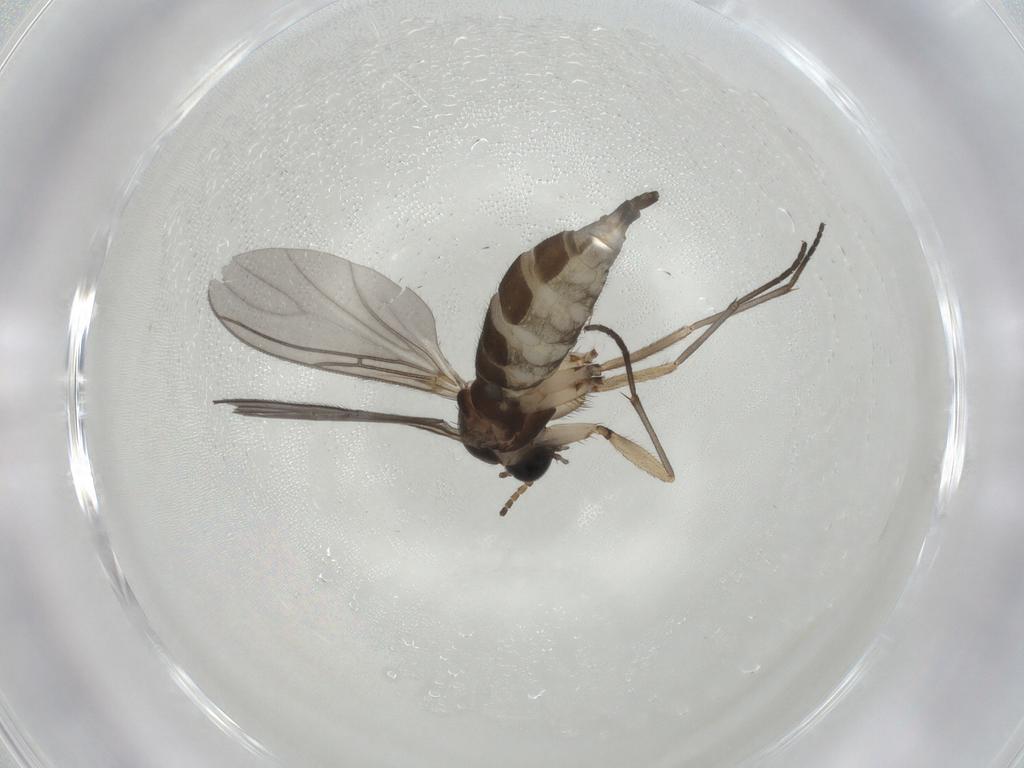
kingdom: Animalia
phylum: Arthropoda
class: Insecta
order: Diptera
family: Sciaridae
